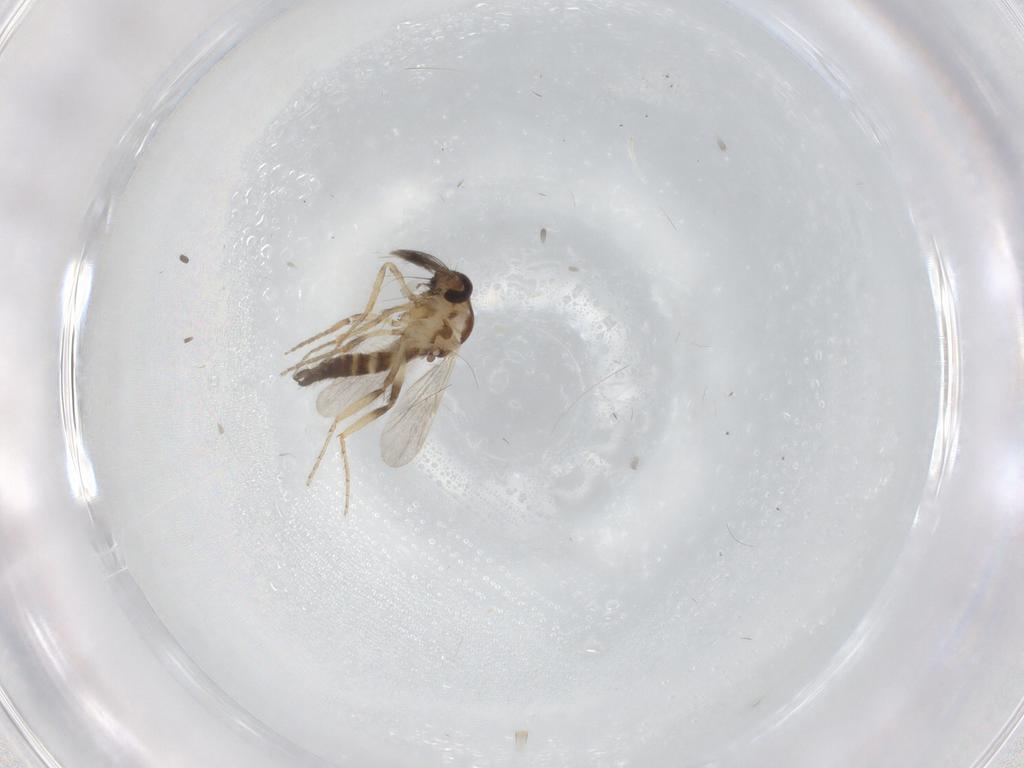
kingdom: Animalia
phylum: Arthropoda
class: Insecta
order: Diptera
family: Ceratopogonidae
